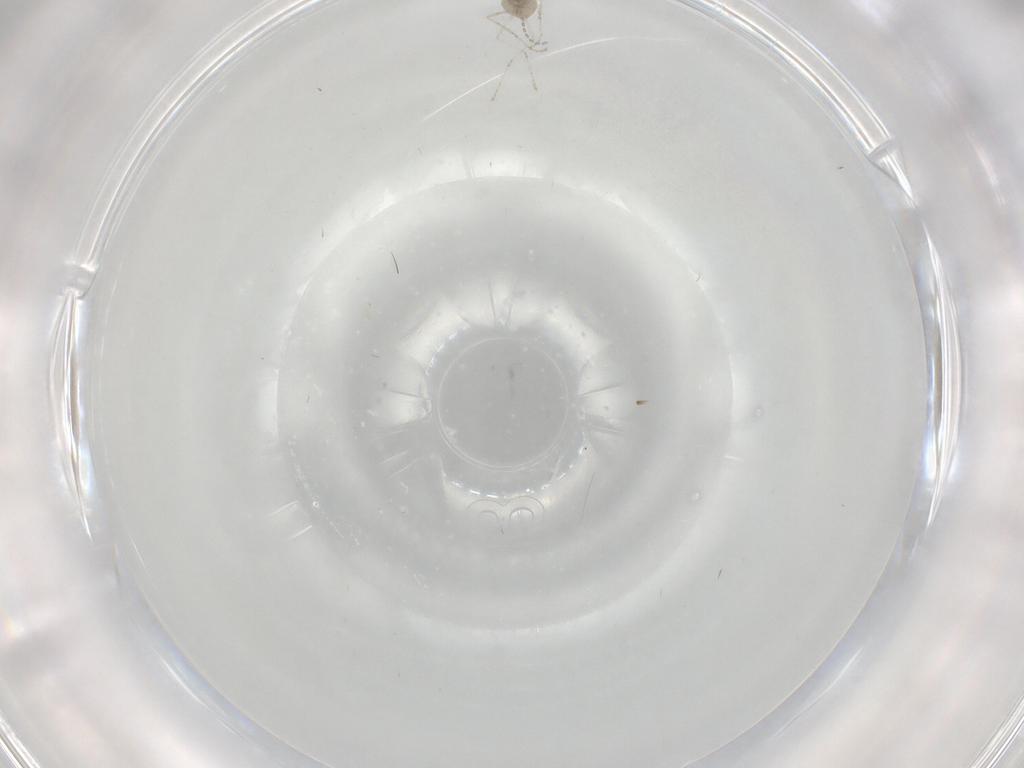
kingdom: Animalia
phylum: Arthropoda
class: Insecta
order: Diptera
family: Cecidomyiidae
